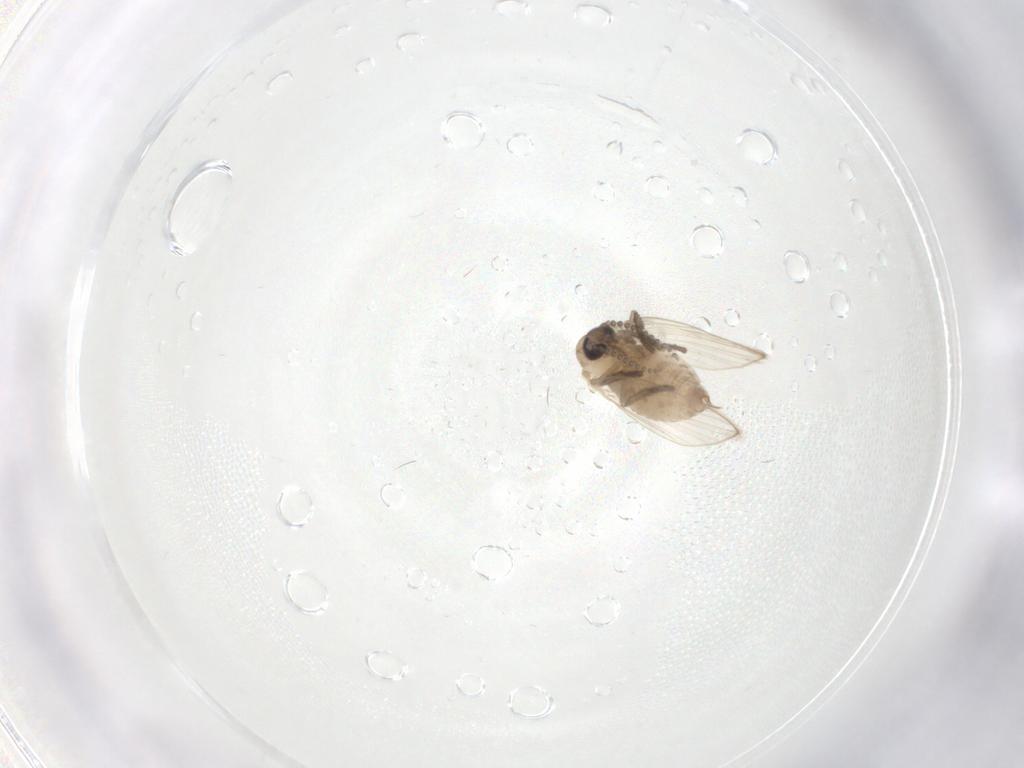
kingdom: Animalia
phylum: Arthropoda
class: Insecta
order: Diptera
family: Psychodidae
